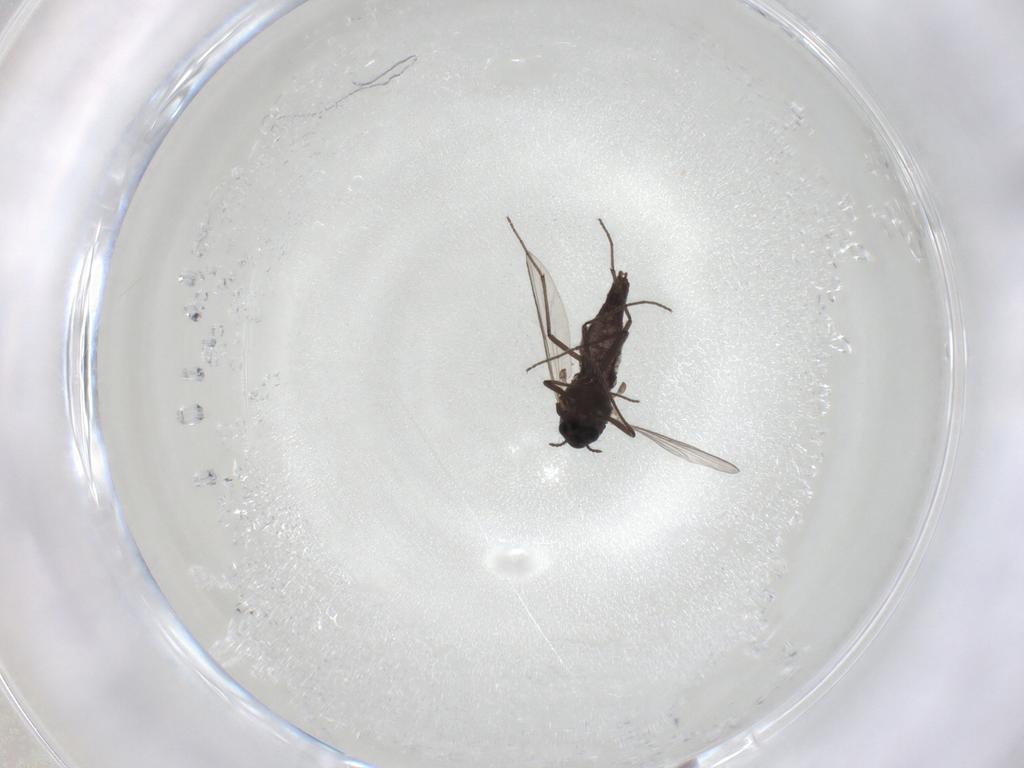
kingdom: Animalia
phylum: Arthropoda
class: Insecta
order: Diptera
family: Chironomidae
